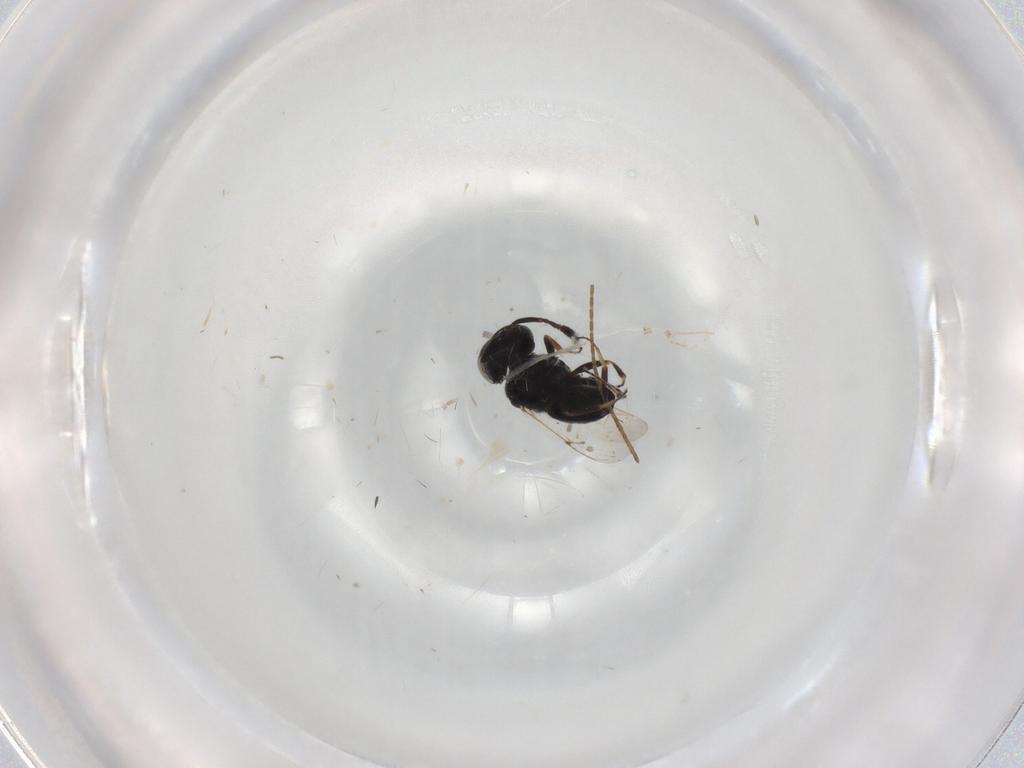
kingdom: Animalia
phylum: Arthropoda
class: Insecta
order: Hymenoptera
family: Scelionidae
